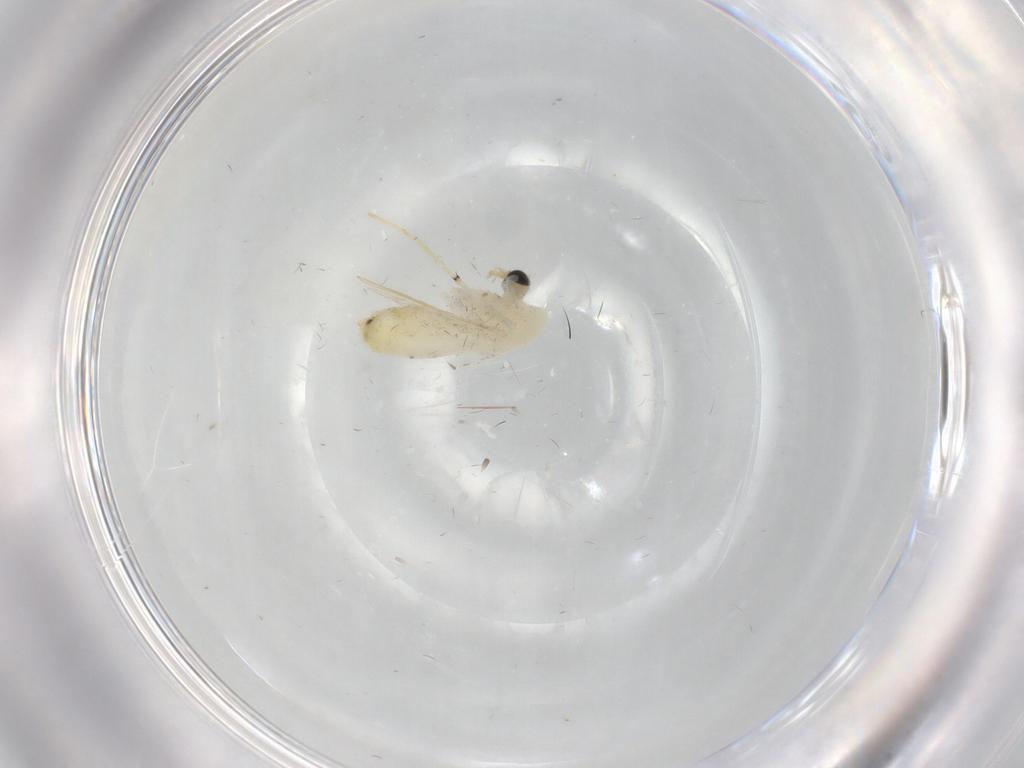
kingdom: Animalia
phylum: Arthropoda
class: Insecta
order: Diptera
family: Chironomidae
